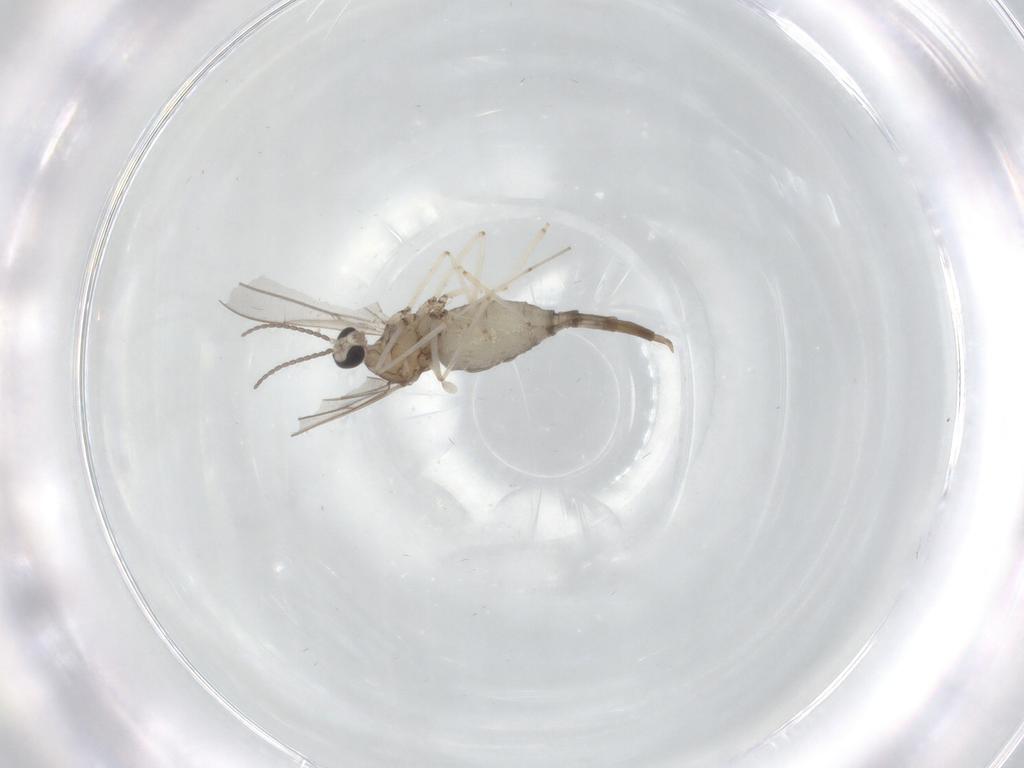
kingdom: Animalia
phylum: Arthropoda
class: Insecta
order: Diptera
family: Cecidomyiidae
